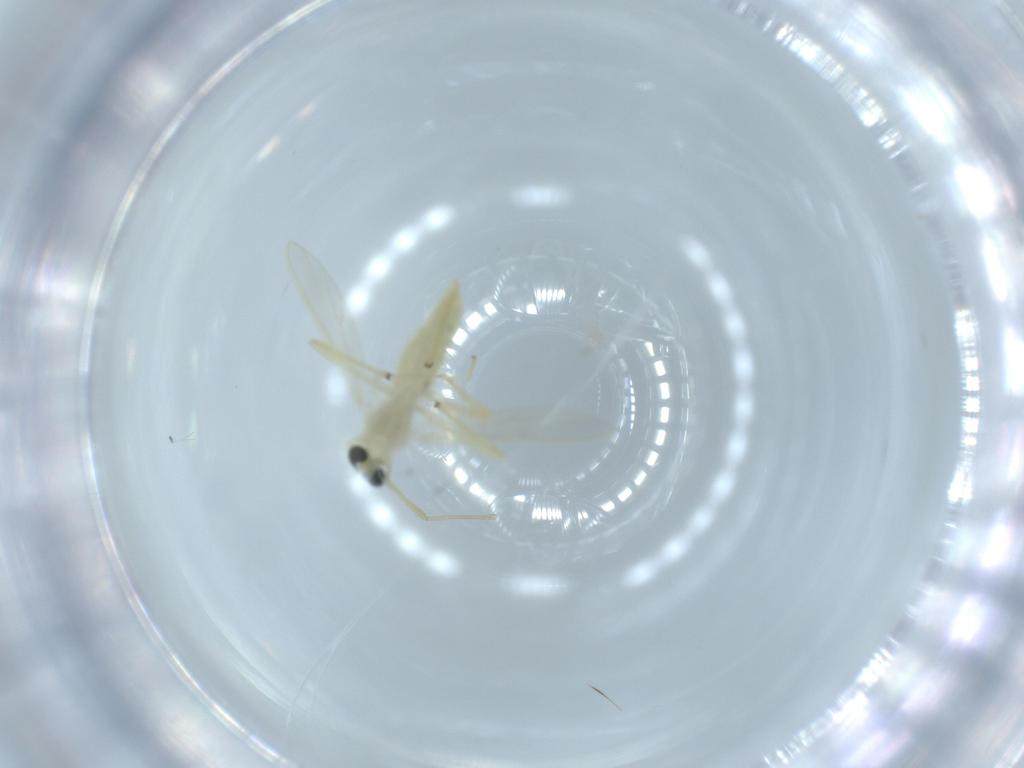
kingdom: Animalia
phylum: Arthropoda
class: Insecta
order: Diptera
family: Chironomidae
